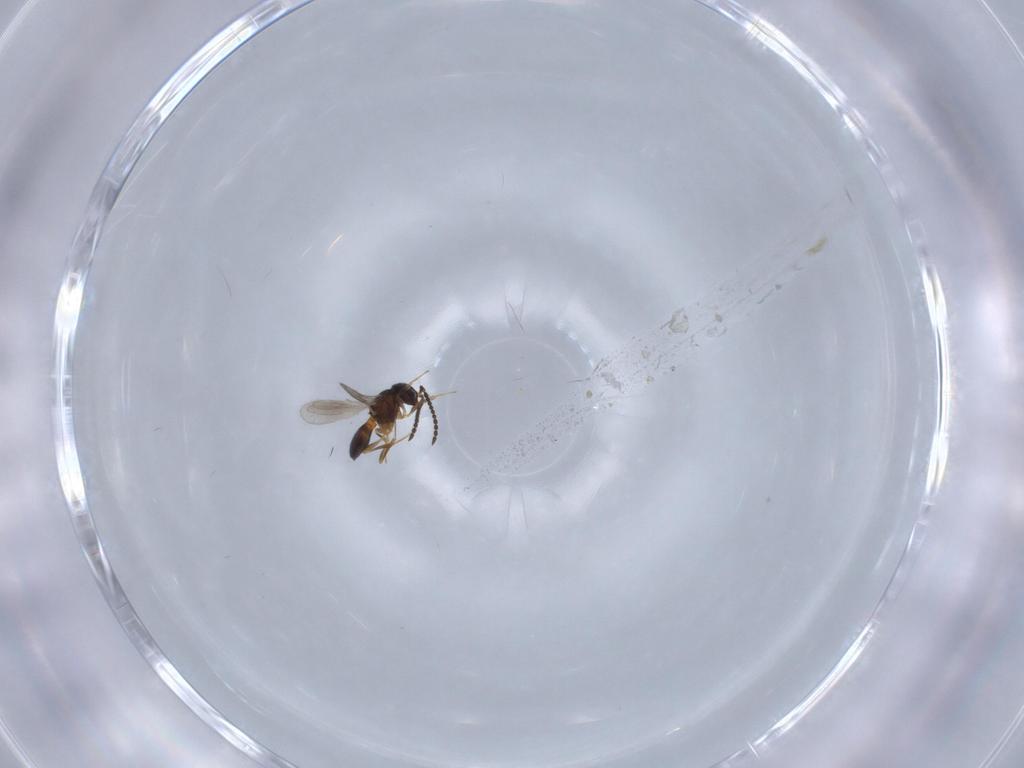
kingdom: Animalia
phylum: Arthropoda
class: Insecta
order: Hymenoptera
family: Scelionidae
